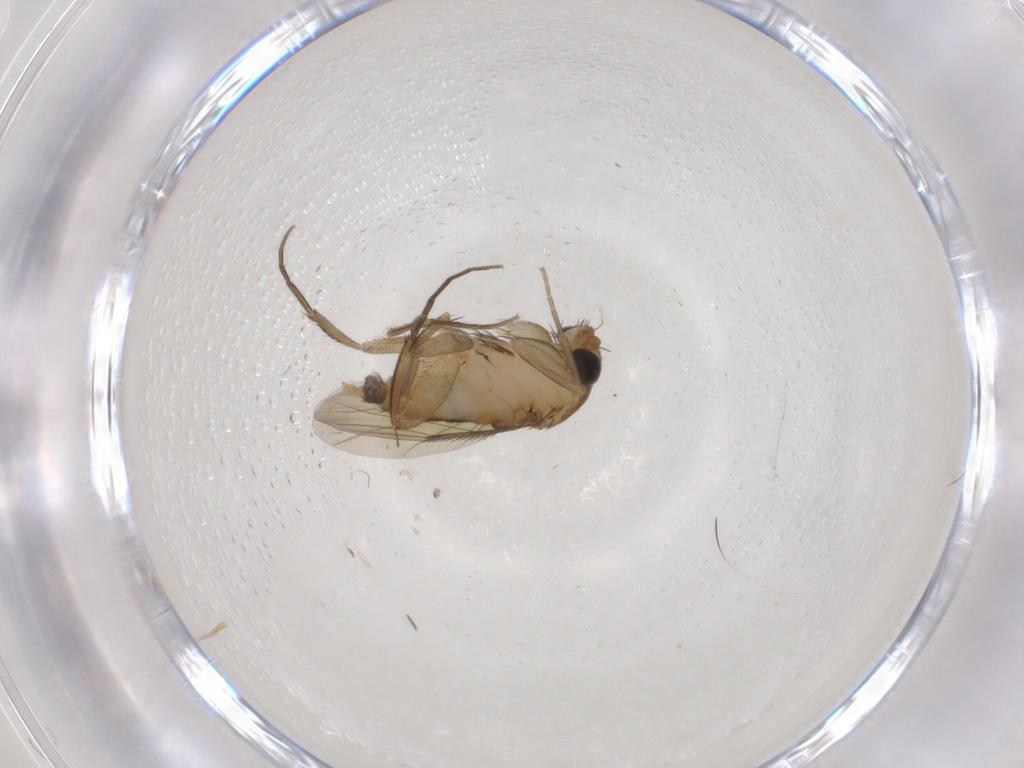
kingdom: Animalia
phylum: Arthropoda
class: Insecta
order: Diptera
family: Phoridae
